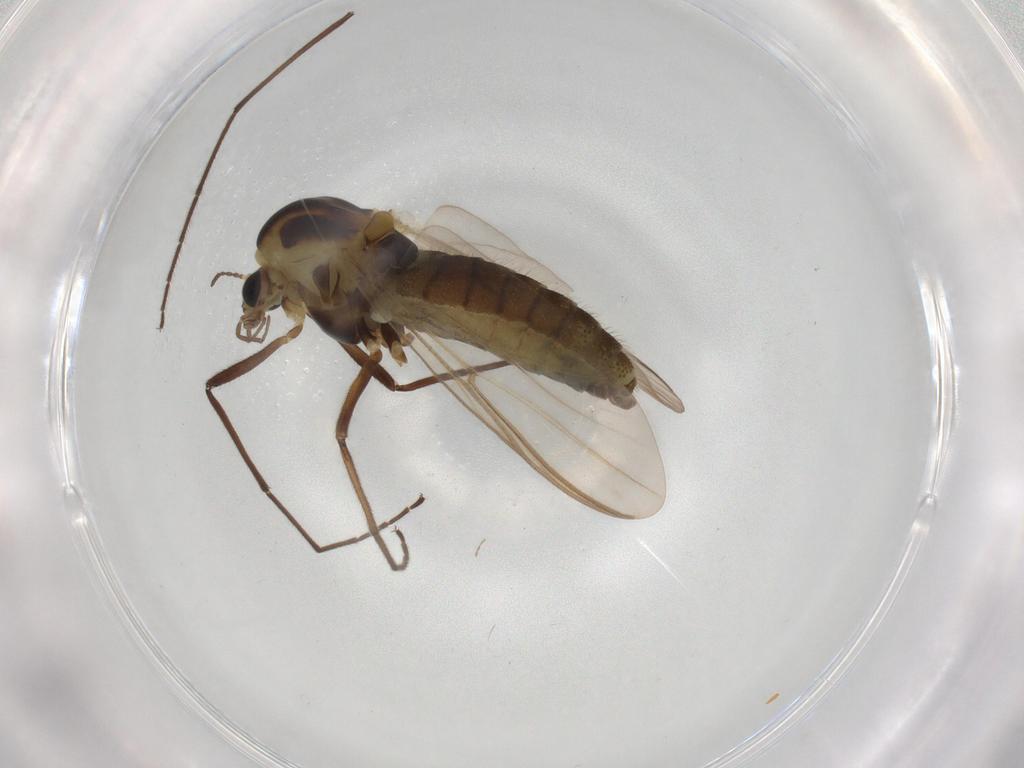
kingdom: Animalia
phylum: Arthropoda
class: Insecta
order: Diptera
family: Anthomyiidae
